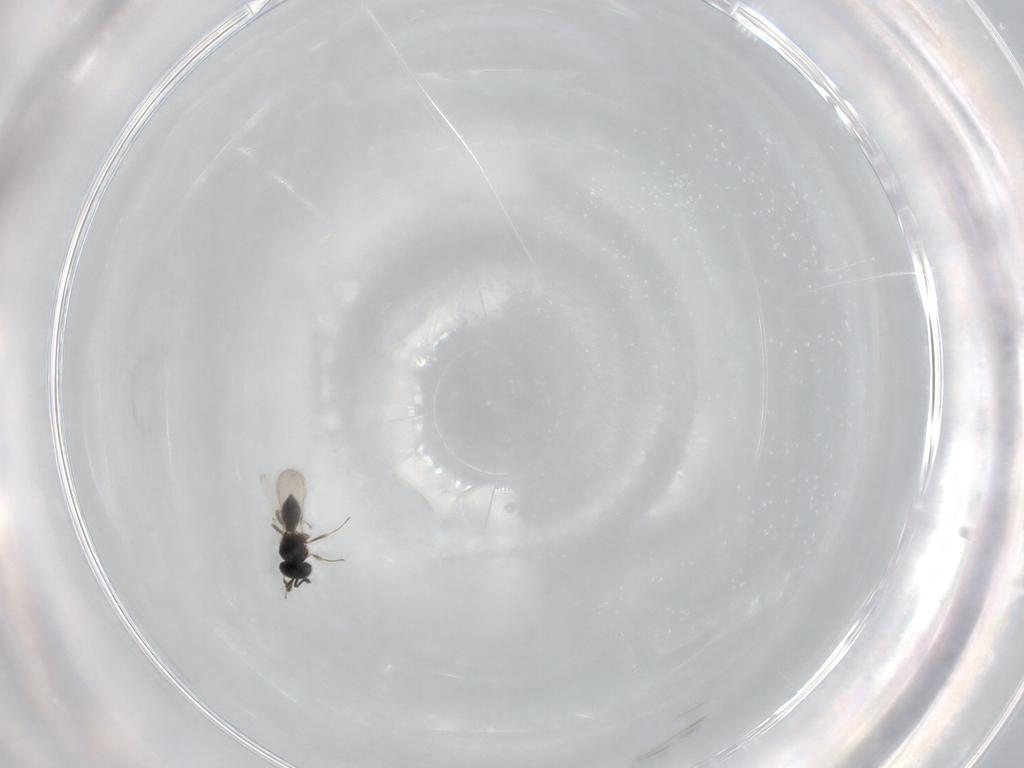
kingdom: Animalia
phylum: Arthropoda
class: Insecta
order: Hymenoptera
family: Scelionidae
